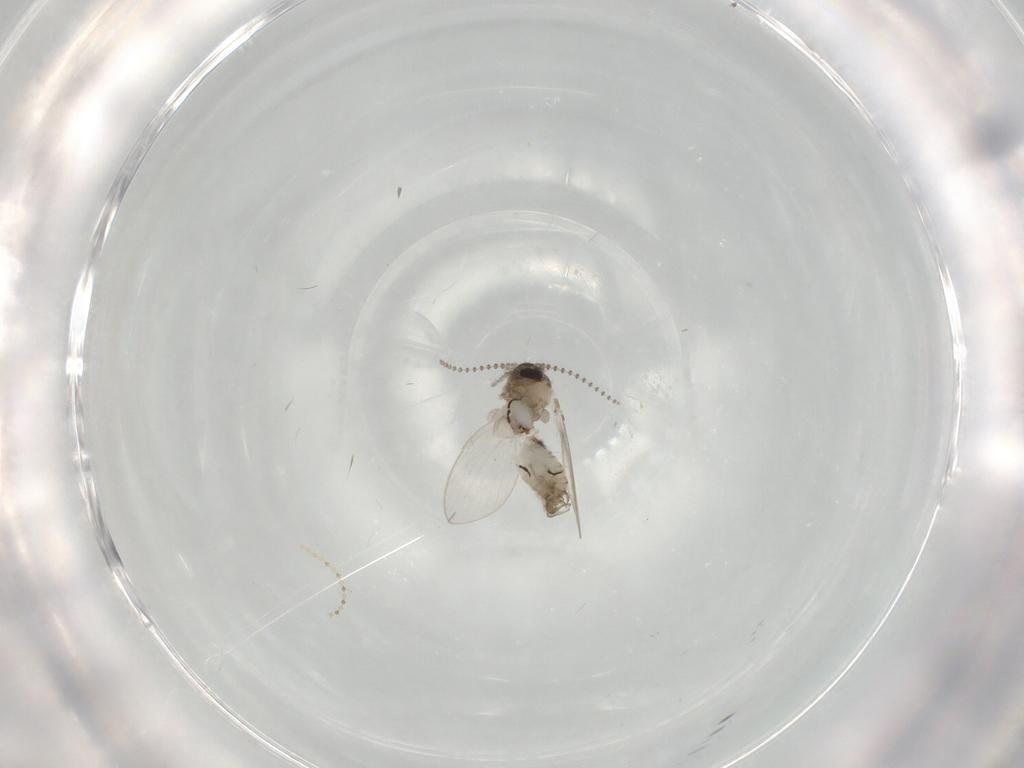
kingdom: Animalia
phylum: Arthropoda
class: Insecta
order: Diptera
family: Psychodidae
